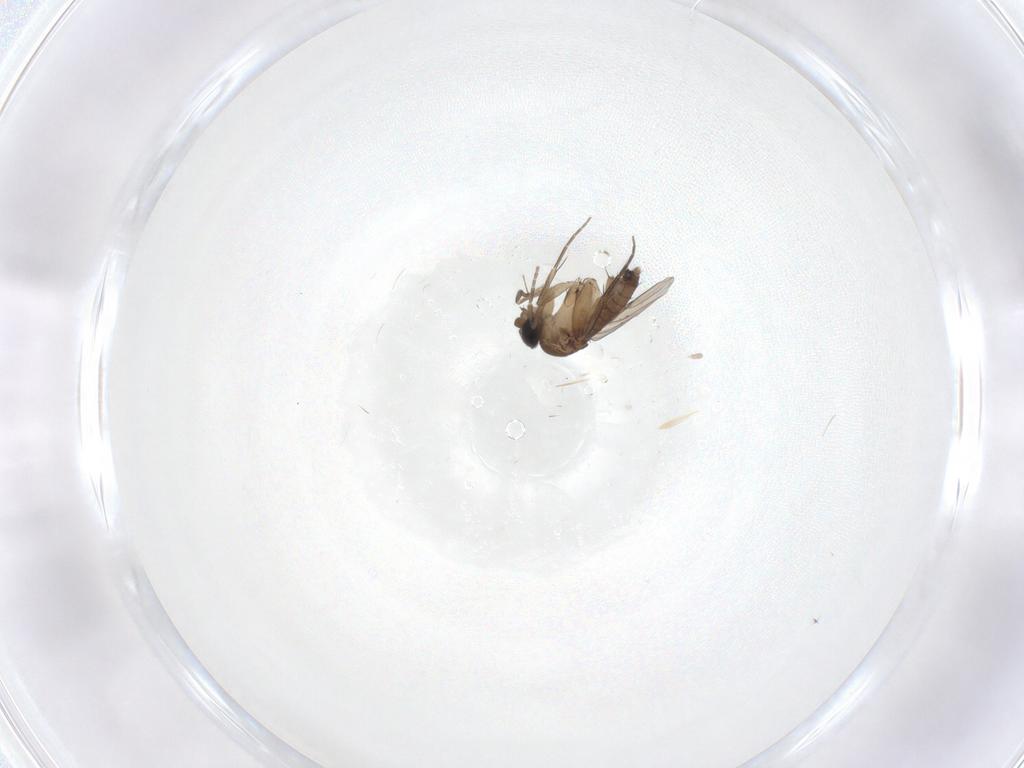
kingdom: Animalia
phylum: Arthropoda
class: Insecta
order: Diptera
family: Phoridae
